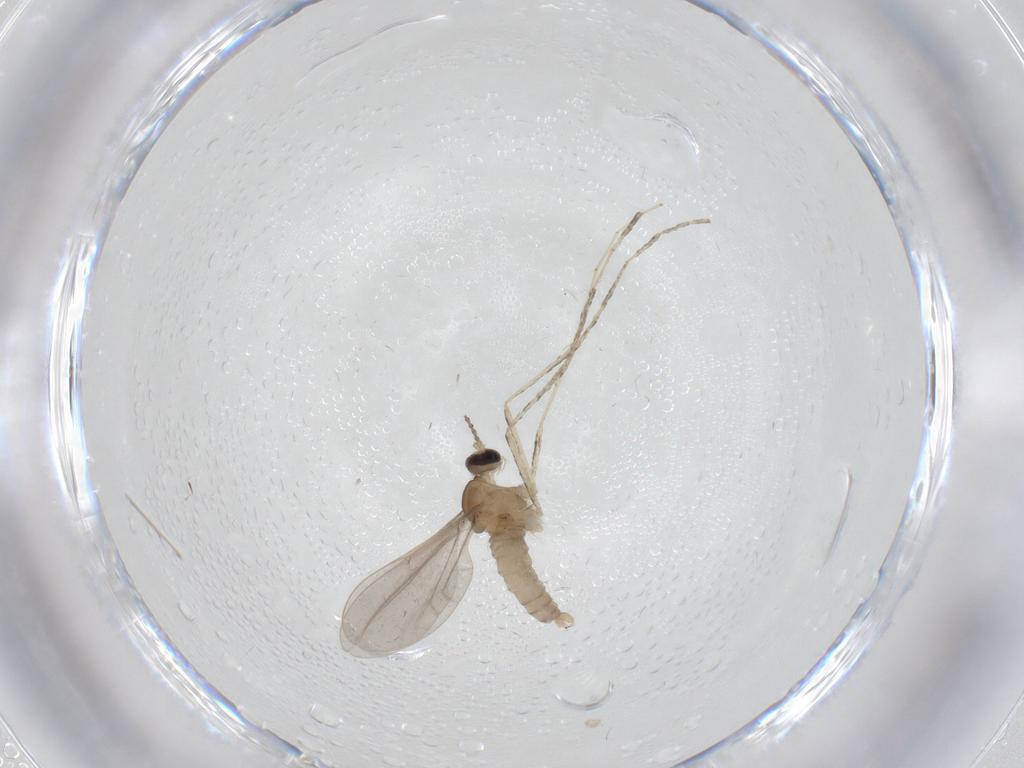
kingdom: Animalia
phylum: Arthropoda
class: Insecta
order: Diptera
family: Cecidomyiidae
